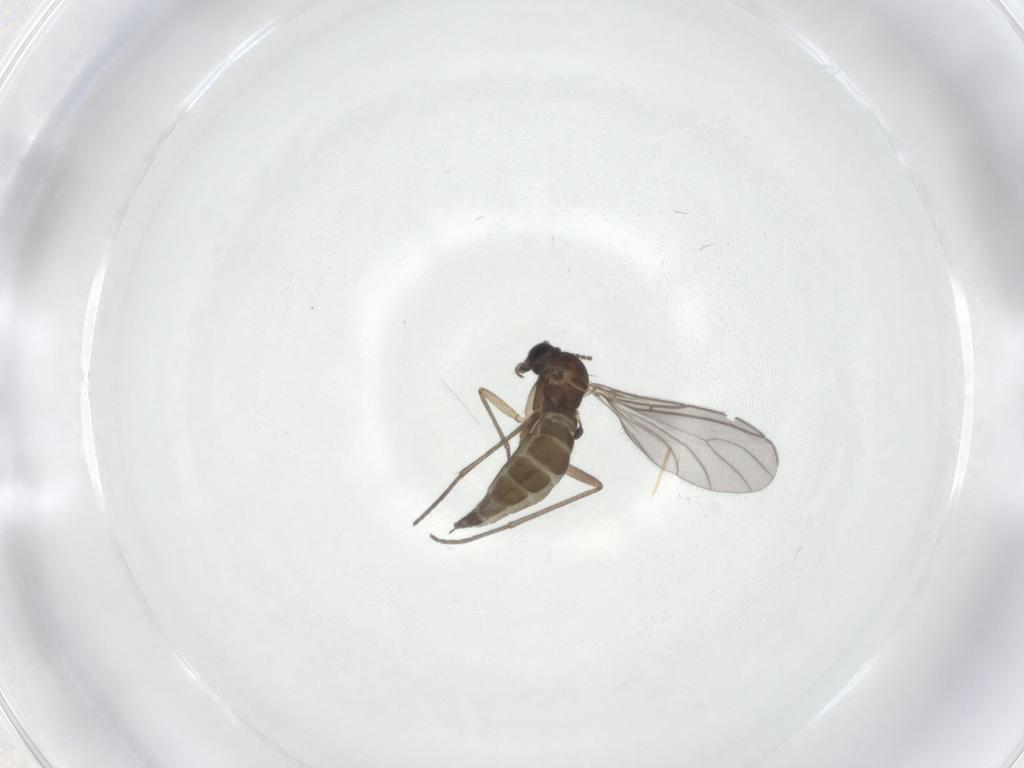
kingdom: Animalia
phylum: Arthropoda
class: Insecta
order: Diptera
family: Sciaridae
